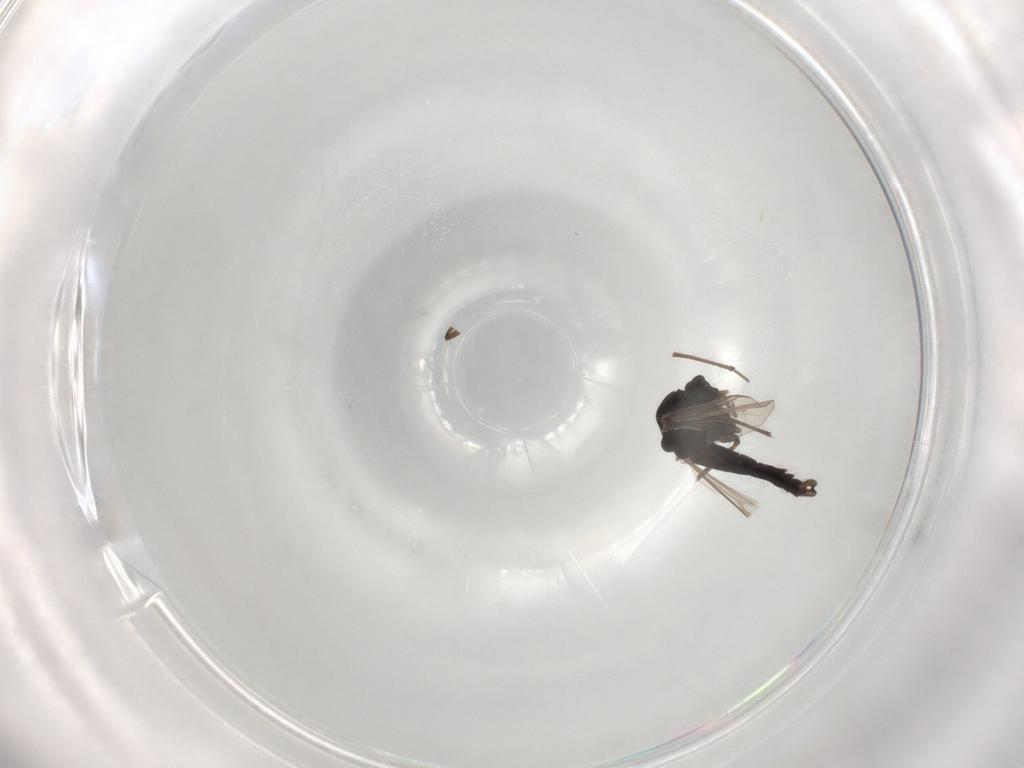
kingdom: Animalia
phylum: Arthropoda
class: Insecta
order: Diptera
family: Chironomidae
